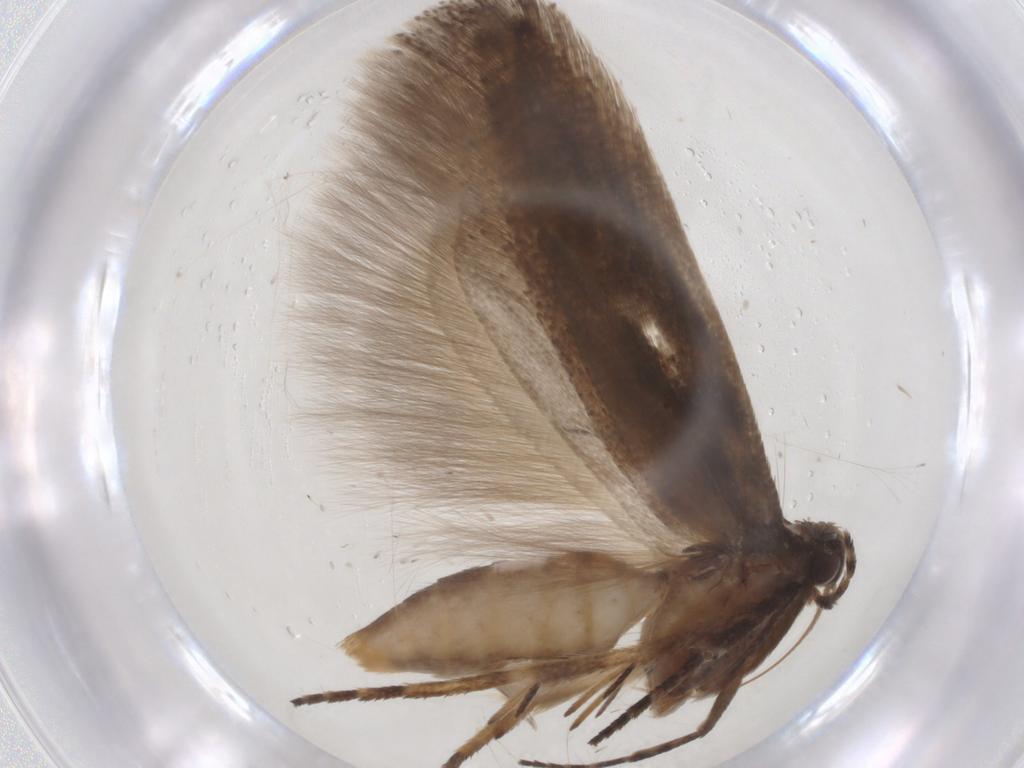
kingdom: Animalia
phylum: Arthropoda
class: Insecta
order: Lepidoptera
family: Gelechiidae
